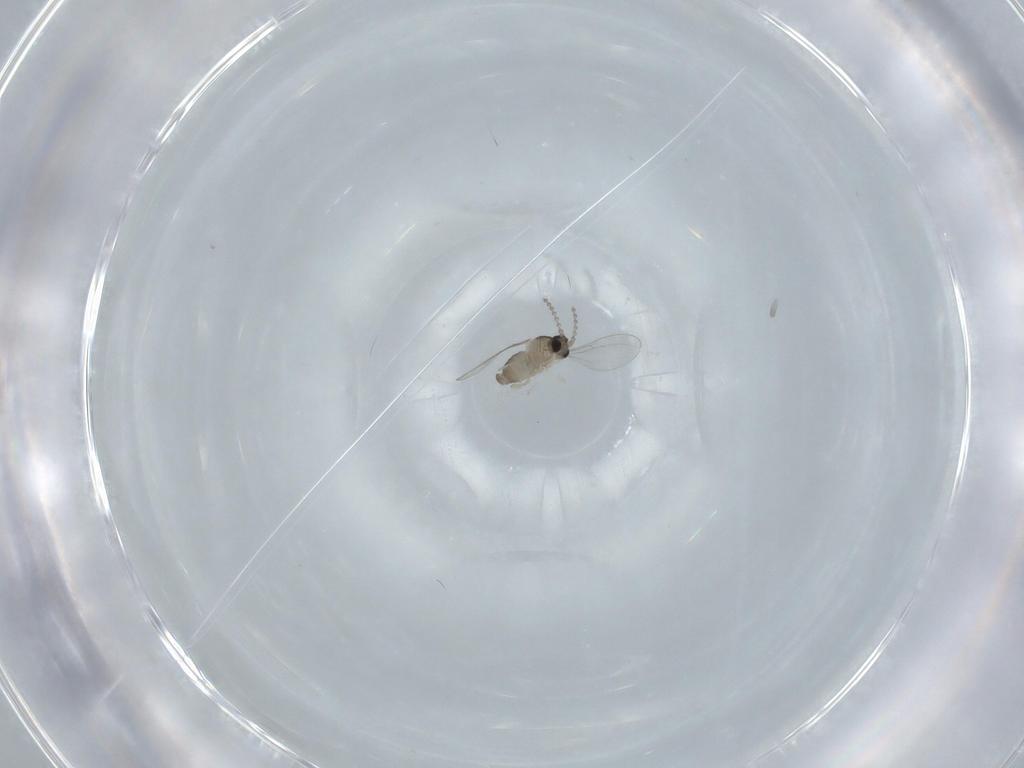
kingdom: Animalia
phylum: Arthropoda
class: Insecta
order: Diptera
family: Cecidomyiidae
